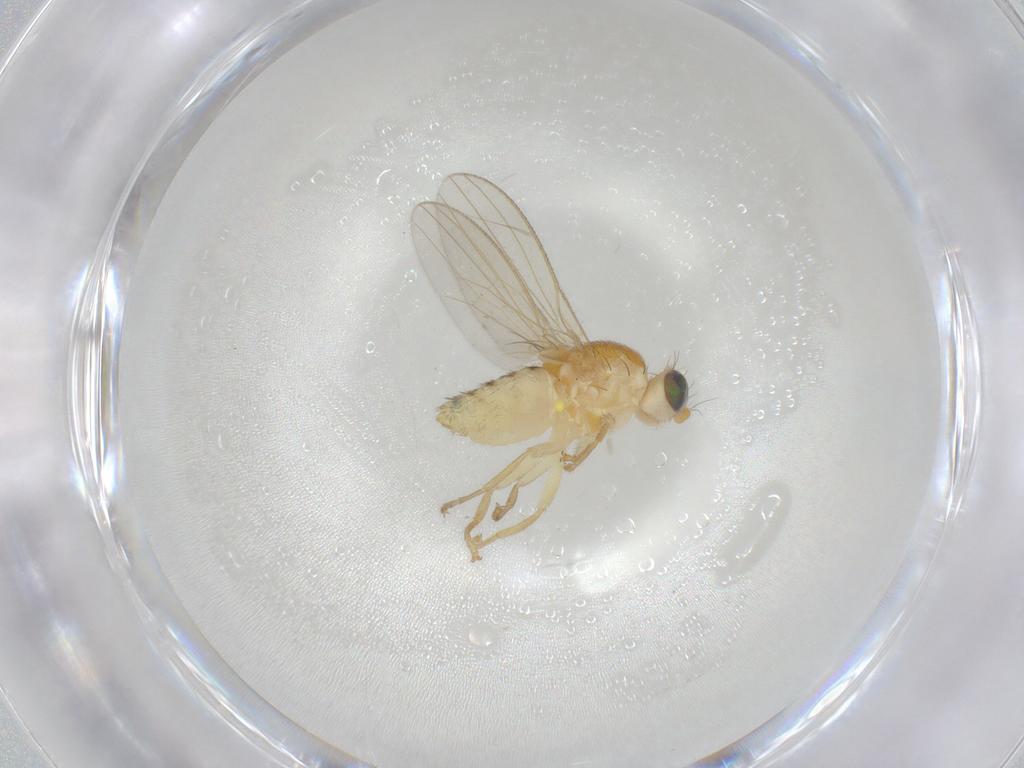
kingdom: Animalia
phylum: Arthropoda
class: Insecta
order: Diptera
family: Chyromyidae
